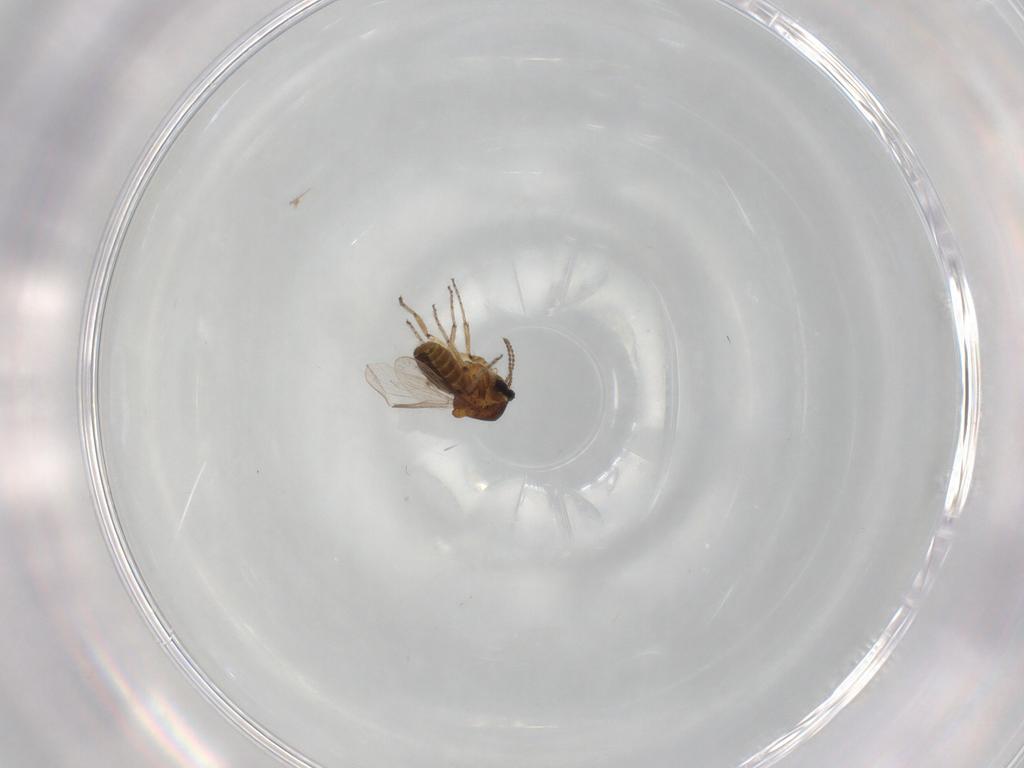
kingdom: Animalia
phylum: Arthropoda
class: Insecta
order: Diptera
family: Ceratopogonidae
